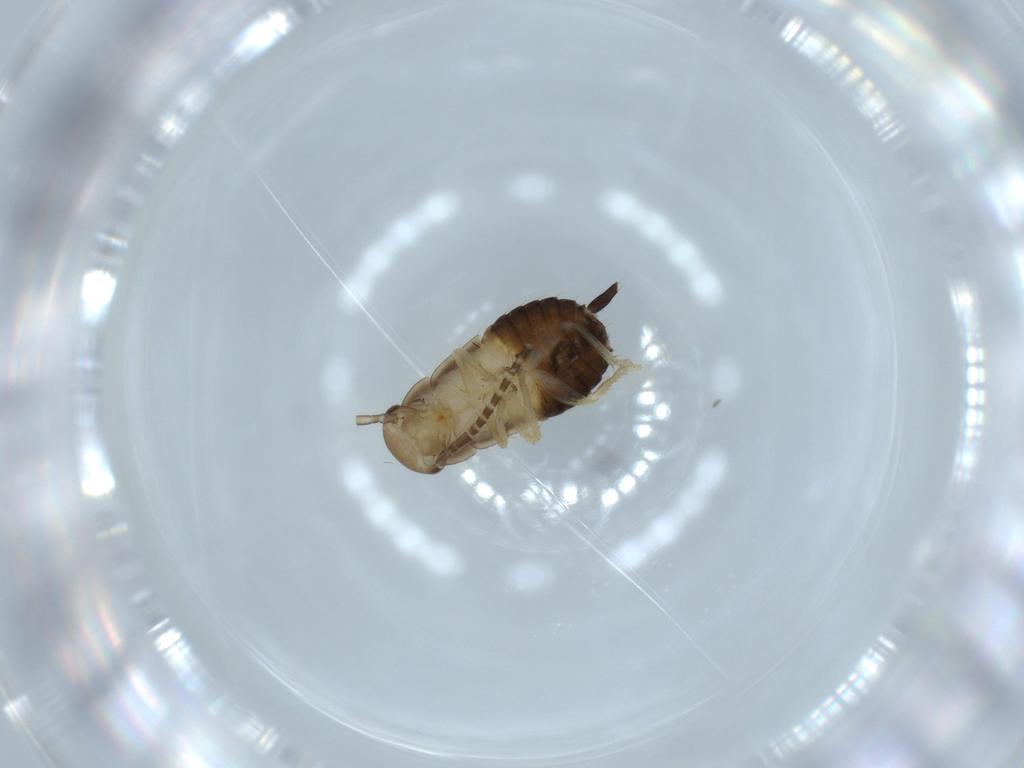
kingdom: Animalia
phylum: Arthropoda
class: Insecta
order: Blattodea
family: Ectobiidae
